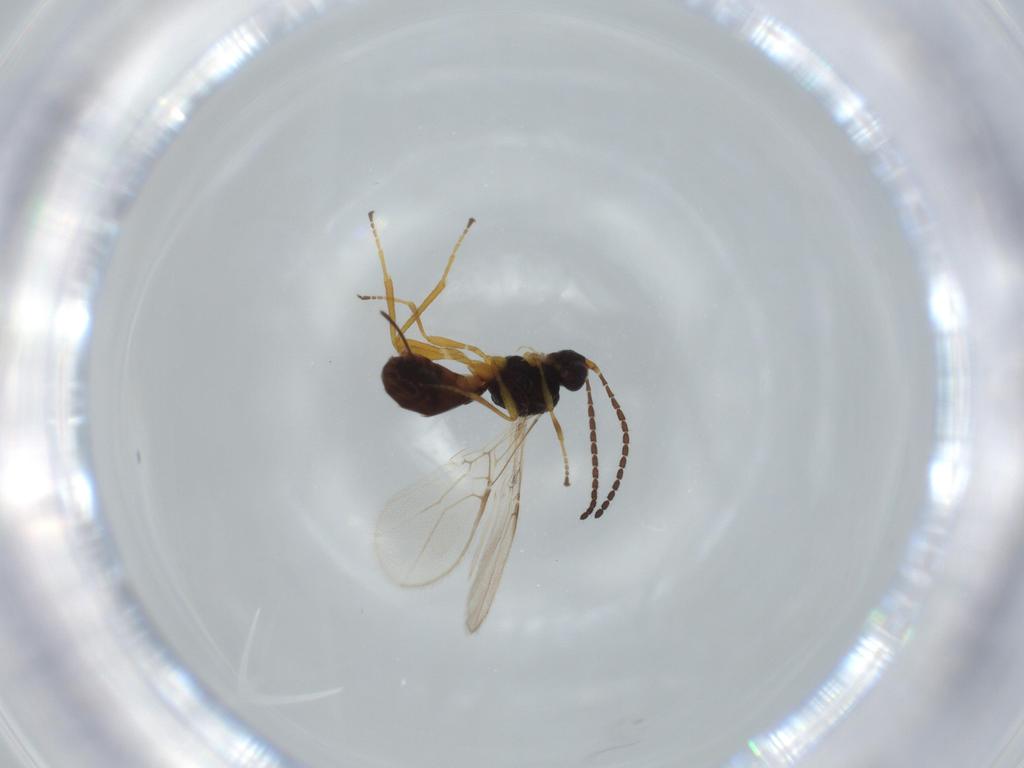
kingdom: Animalia
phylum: Arthropoda
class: Insecta
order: Hymenoptera
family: Braconidae
